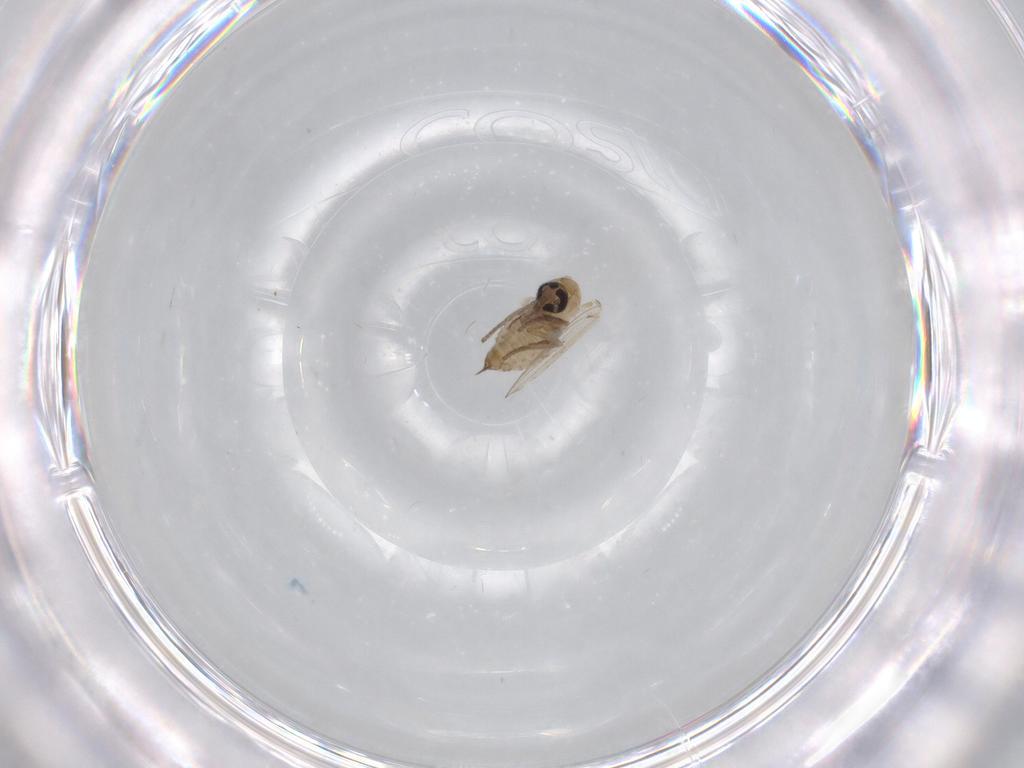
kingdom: Animalia
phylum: Arthropoda
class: Insecta
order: Diptera
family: Psychodidae
